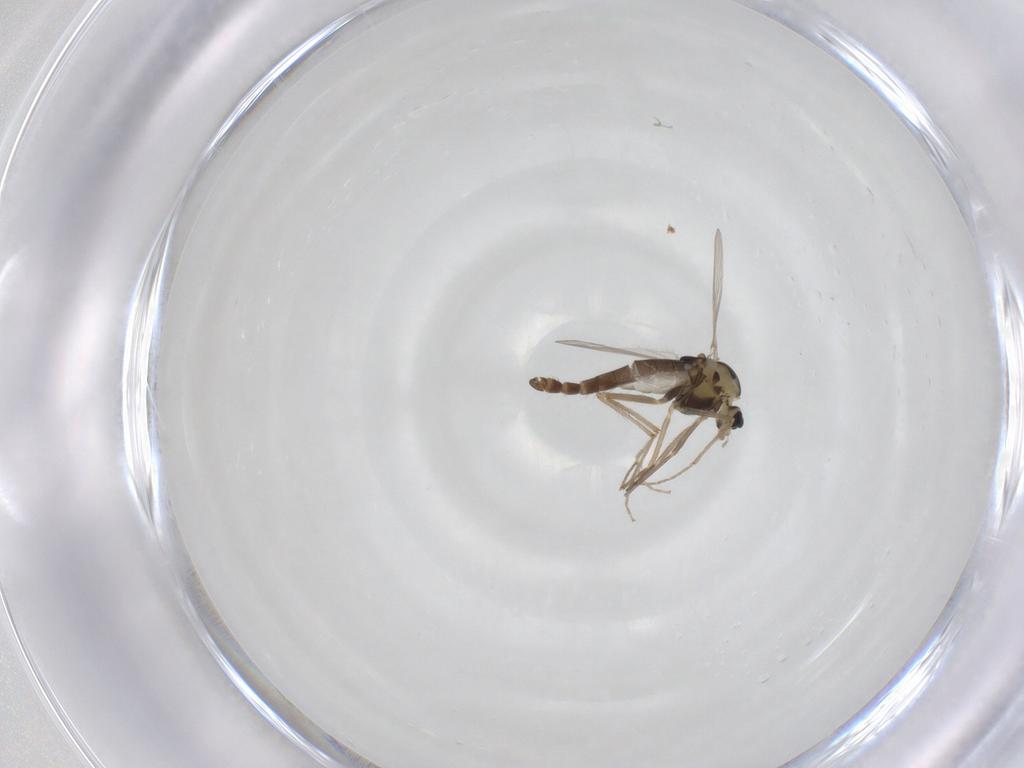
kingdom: Animalia
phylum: Arthropoda
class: Insecta
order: Diptera
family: Chironomidae
